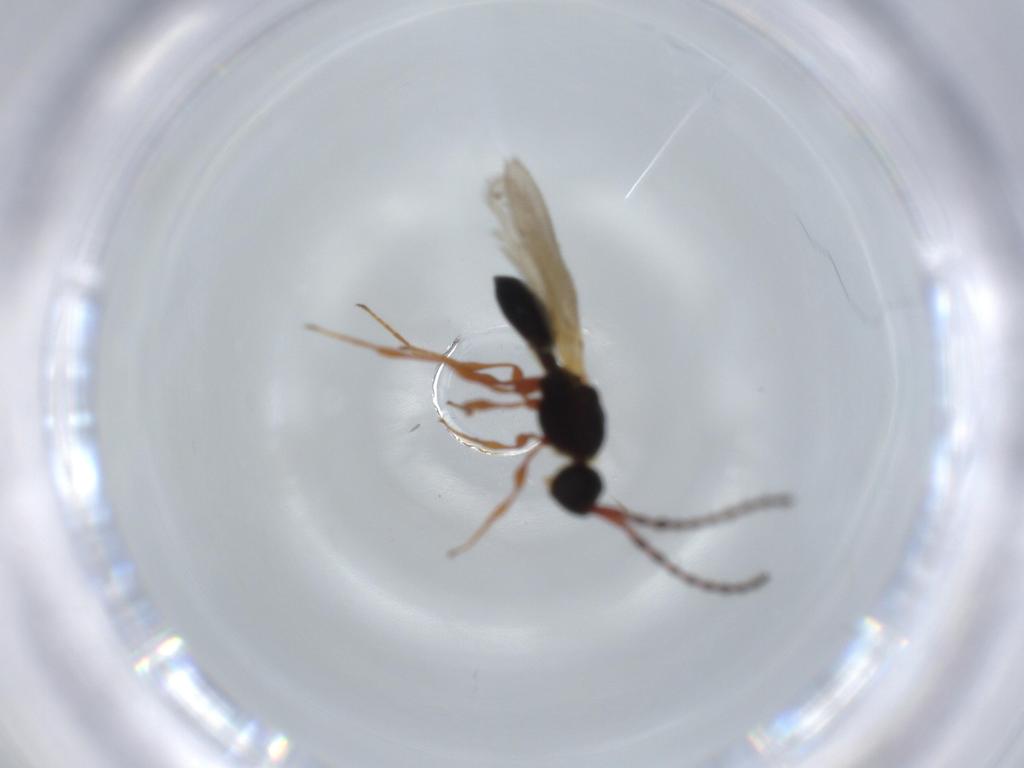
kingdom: Animalia
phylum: Arthropoda
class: Insecta
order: Hymenoptera
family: Diapriidae
